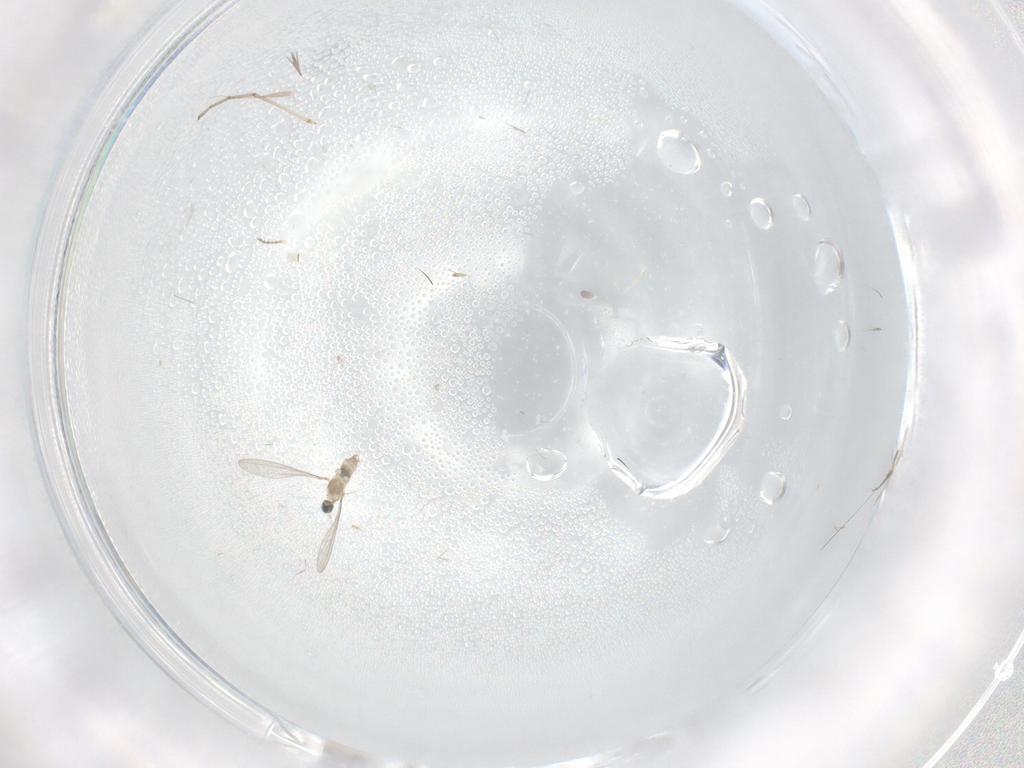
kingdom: Animalia
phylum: Arthropoda
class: Insecta
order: Diptera
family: Cecidomyiidae
